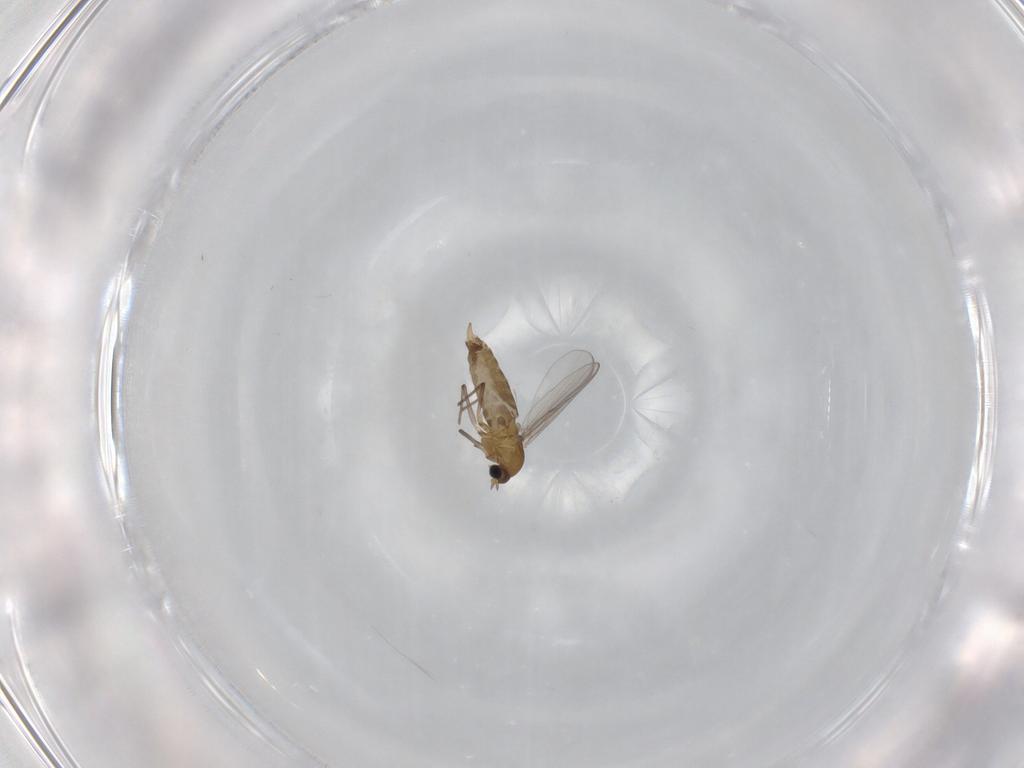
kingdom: Animalia
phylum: Arthropoda
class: Insecta
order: Diptera
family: Chironomidae
